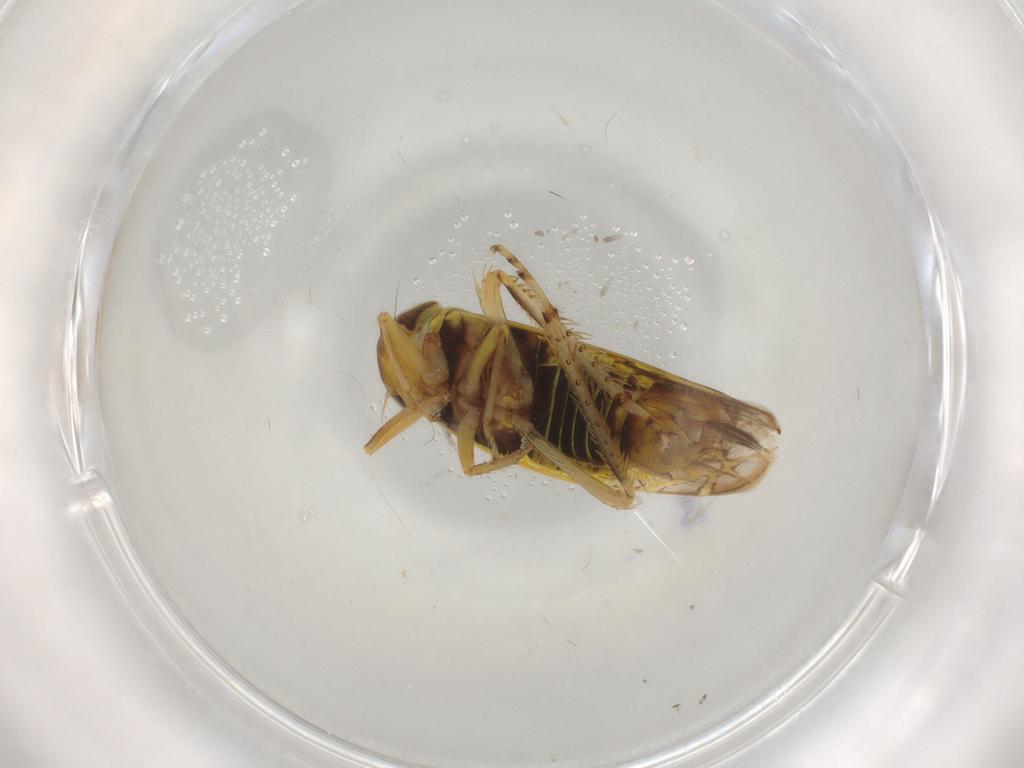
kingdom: Animalia
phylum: Arthropoda
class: Insecta
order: Hemiptera
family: Cicadellidae
